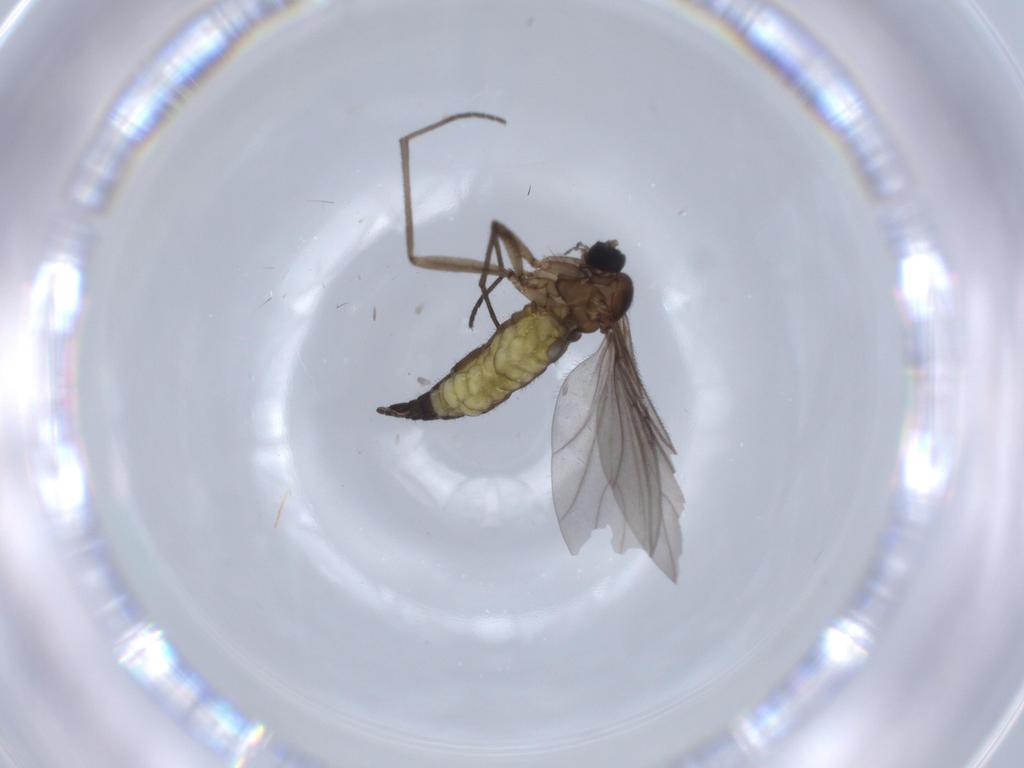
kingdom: Animalia
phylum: Arthropoda
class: Insecta
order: Diptera
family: Sciaridae
